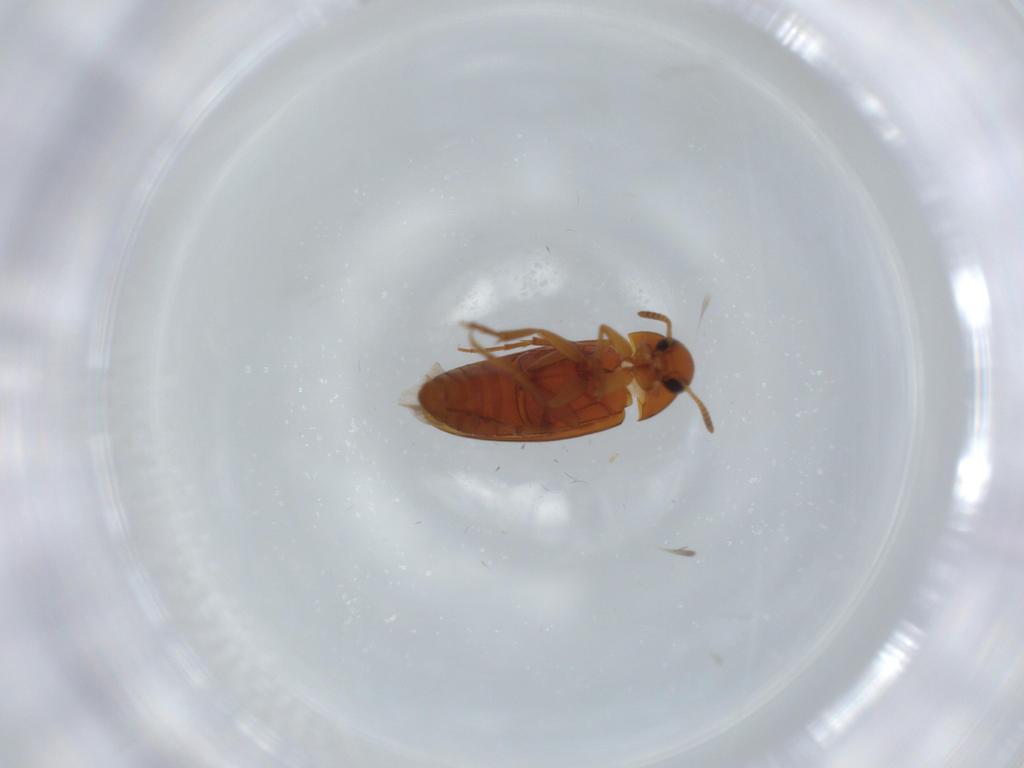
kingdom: Animalia
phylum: Arthropoda
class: Insecta
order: Coleoptera
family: Scraptiidae
